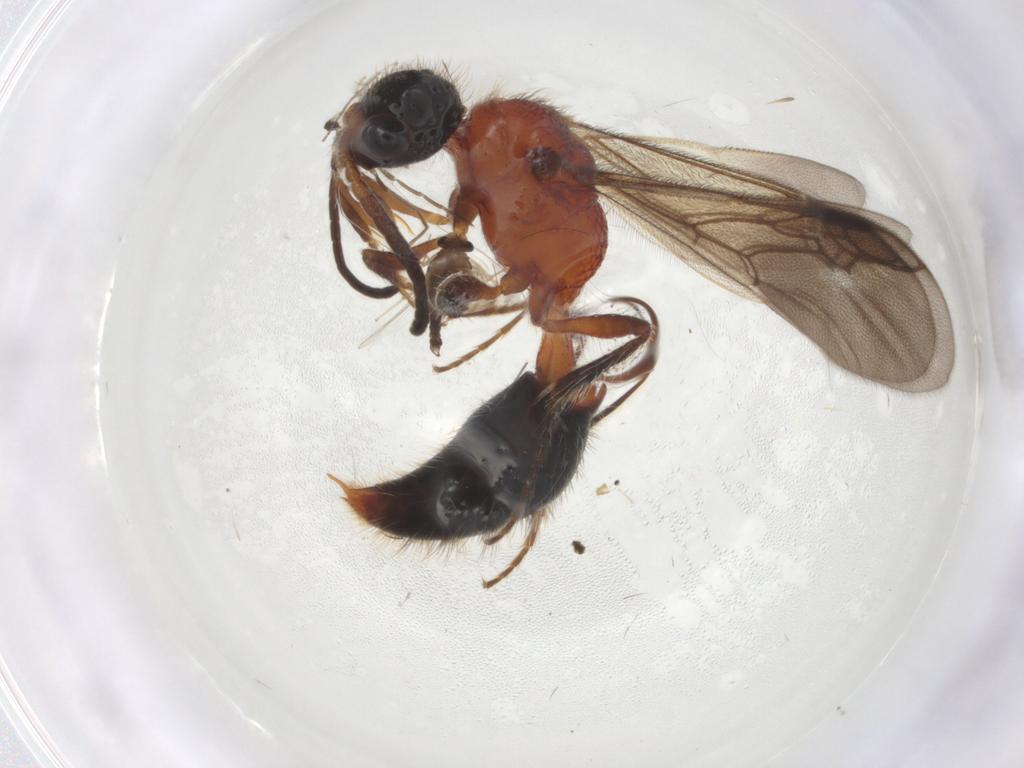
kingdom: Animalia
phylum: Arthropoda
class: Insecta
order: Hymenoptera
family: Mutillidae
